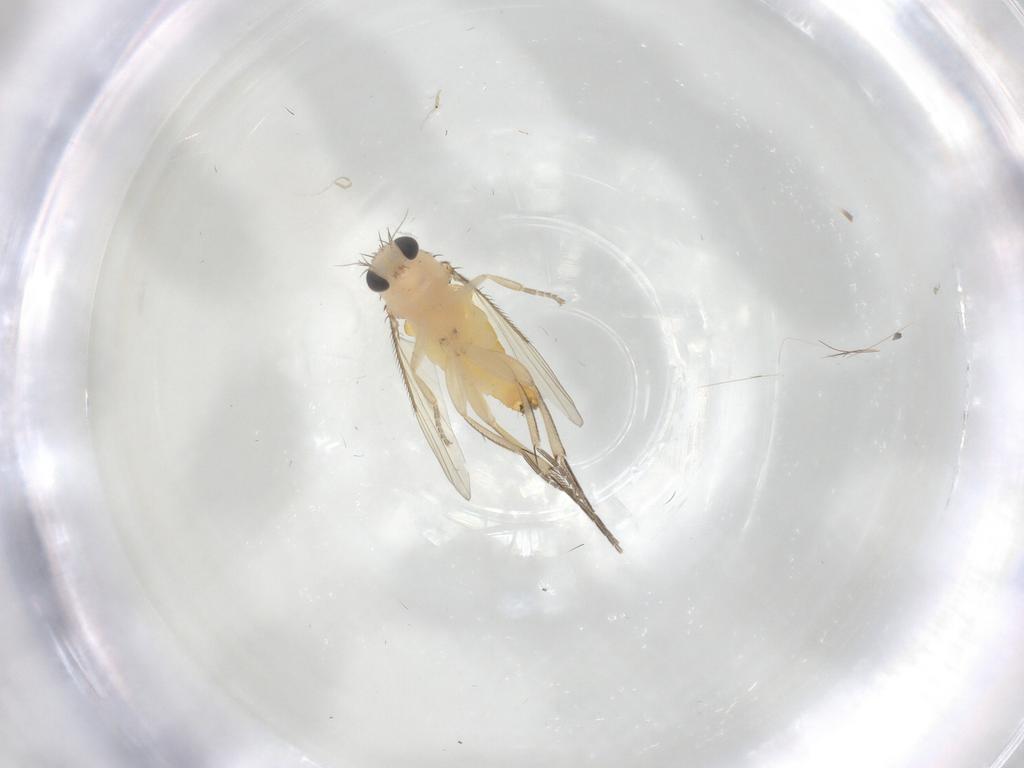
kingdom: Animalia
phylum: Arthropoda
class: Insecta
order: Diptera
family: Phoridae
